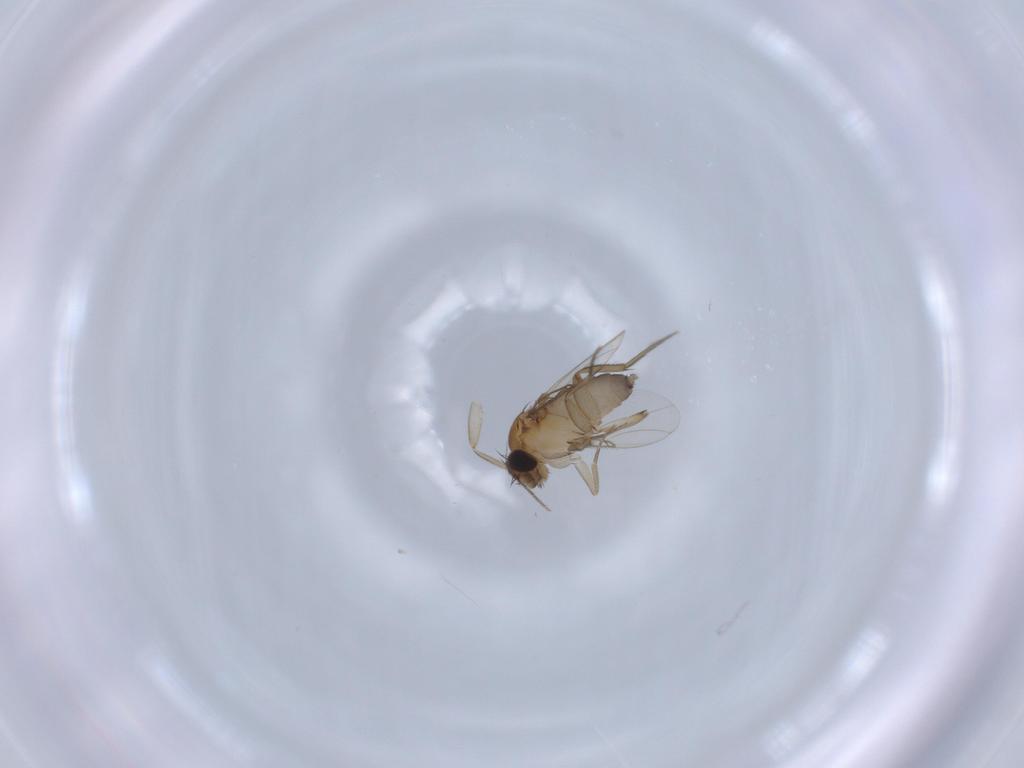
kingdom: Animalia
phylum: Arthropoda
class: Insecta
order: Diptera
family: Phoridae
